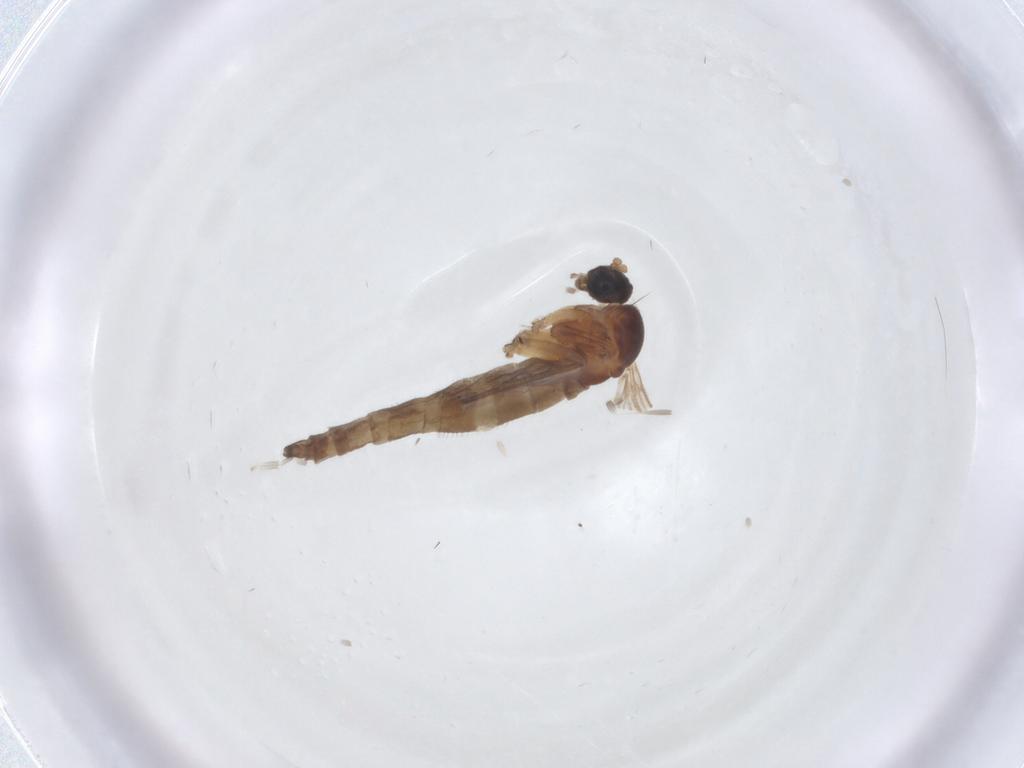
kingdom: Animalia
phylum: Arthropoda
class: Insecta
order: Diptera
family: Sciaridae
